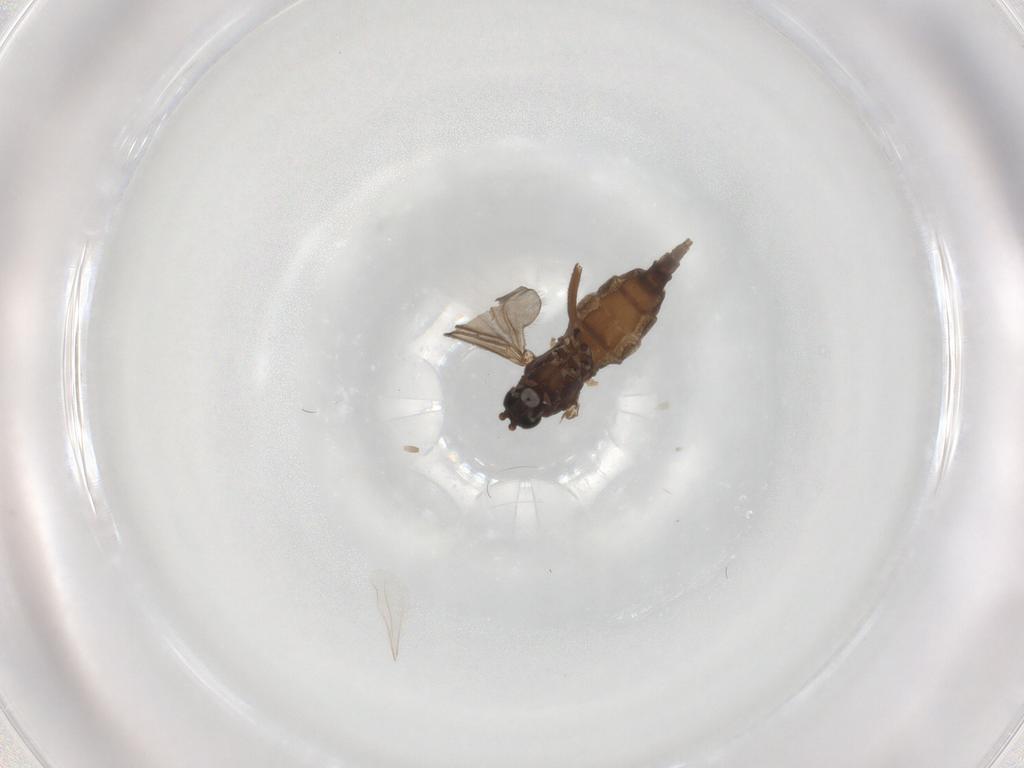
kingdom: Animalia
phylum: Arthropoda
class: Insecta
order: Diptera
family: Sciaridae
